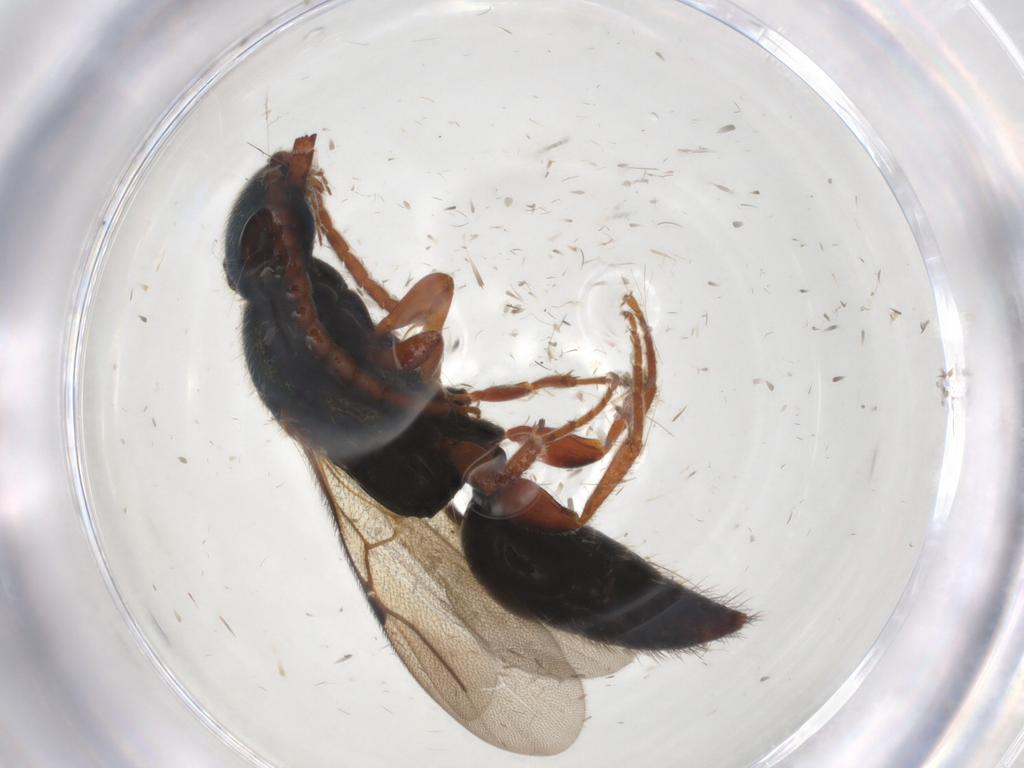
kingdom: Animalia
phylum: Arthropoda
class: Insecta
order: Hymenoptera
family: Bethylidae
